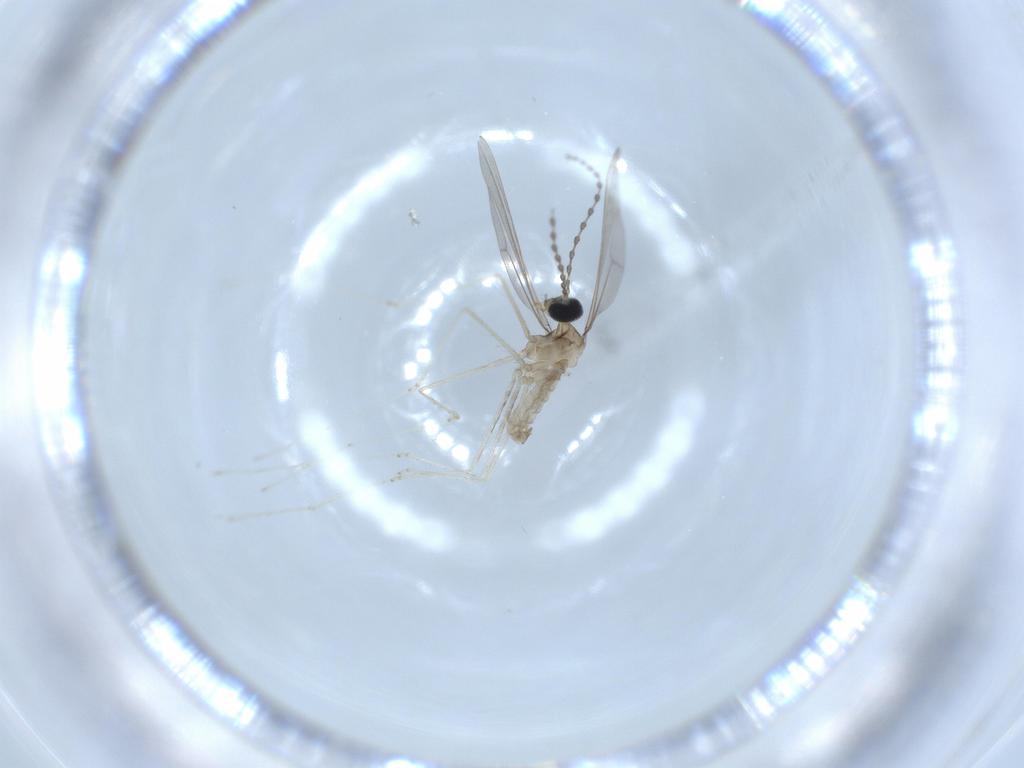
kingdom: Animalia
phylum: Arthropoda
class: Insecta
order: Diptera
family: Cecidomyiidae
